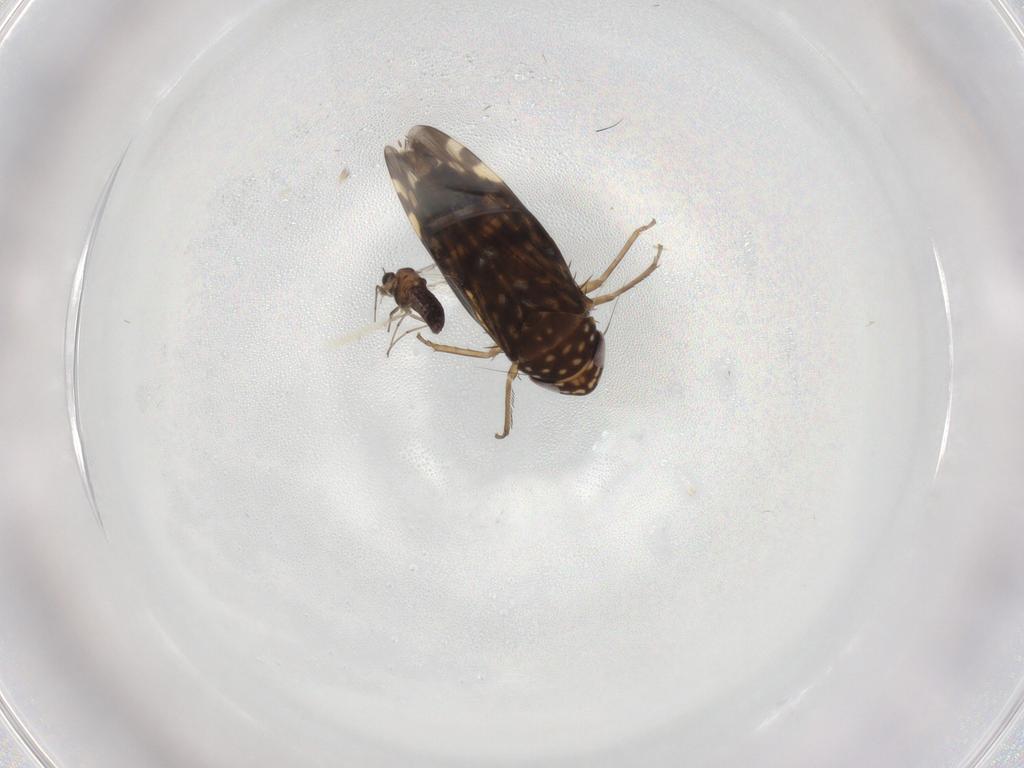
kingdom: Animalia
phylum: Arthropoda
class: Insecta
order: Hemiptera
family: Cicadellidae
